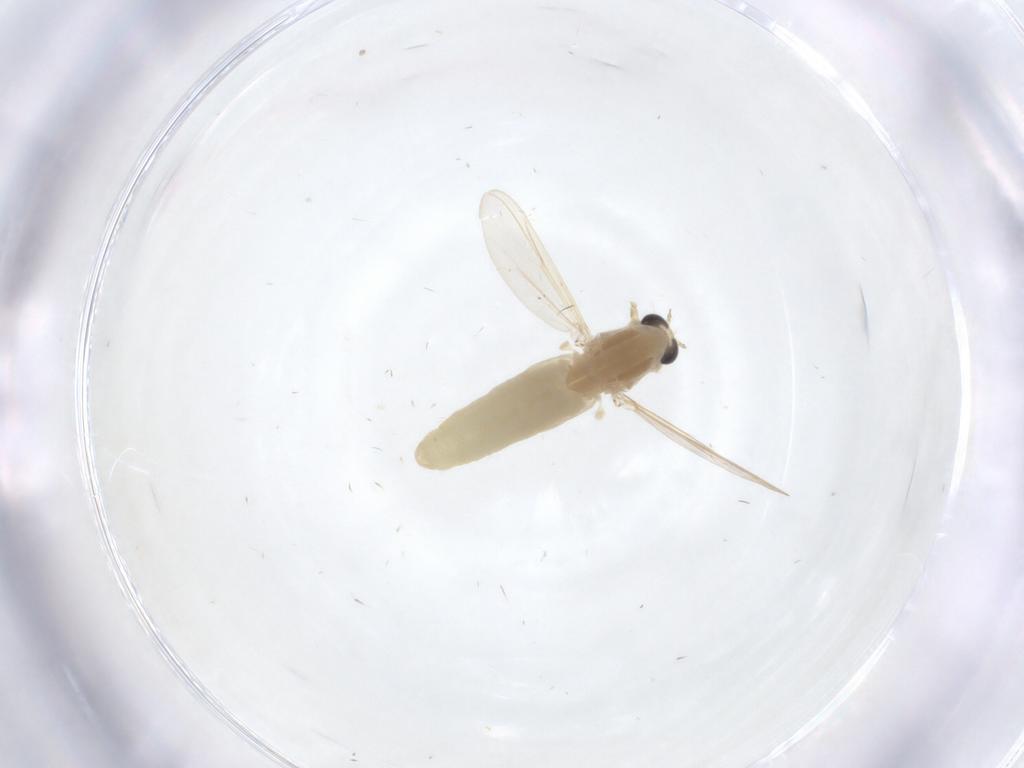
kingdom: Animalia
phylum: Arthropoda
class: Insecta
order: Diptera
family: Chironomidae
